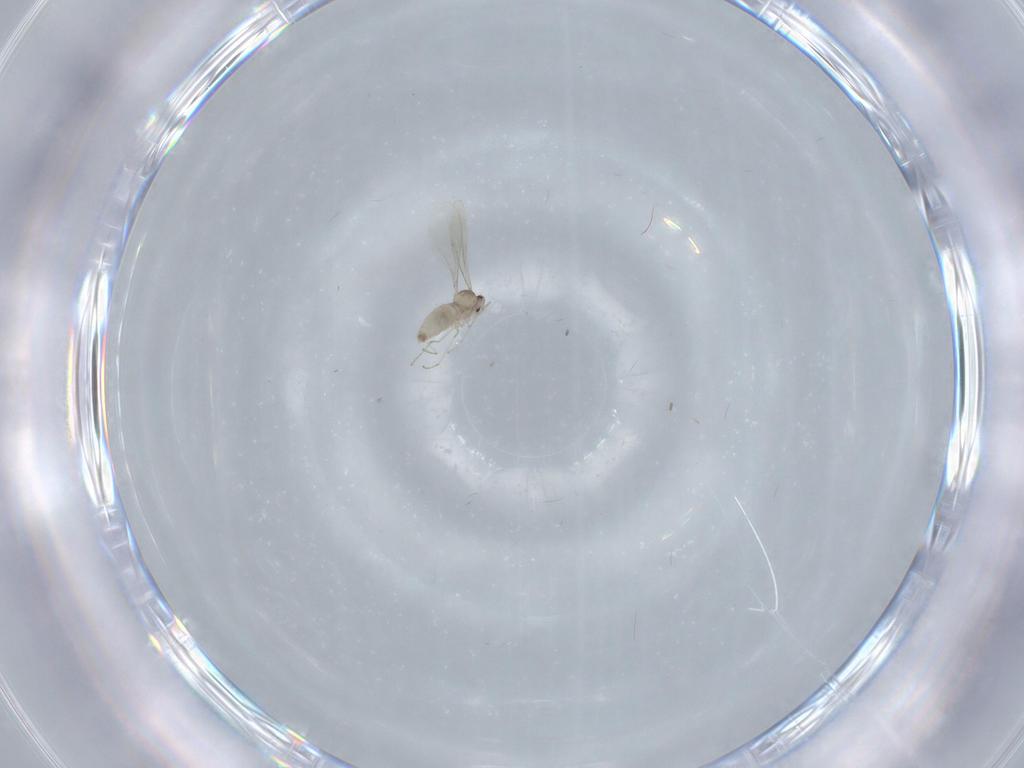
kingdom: Animalia
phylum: Arthropoda
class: Insecta
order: Diptera
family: Cecidomyiidae
